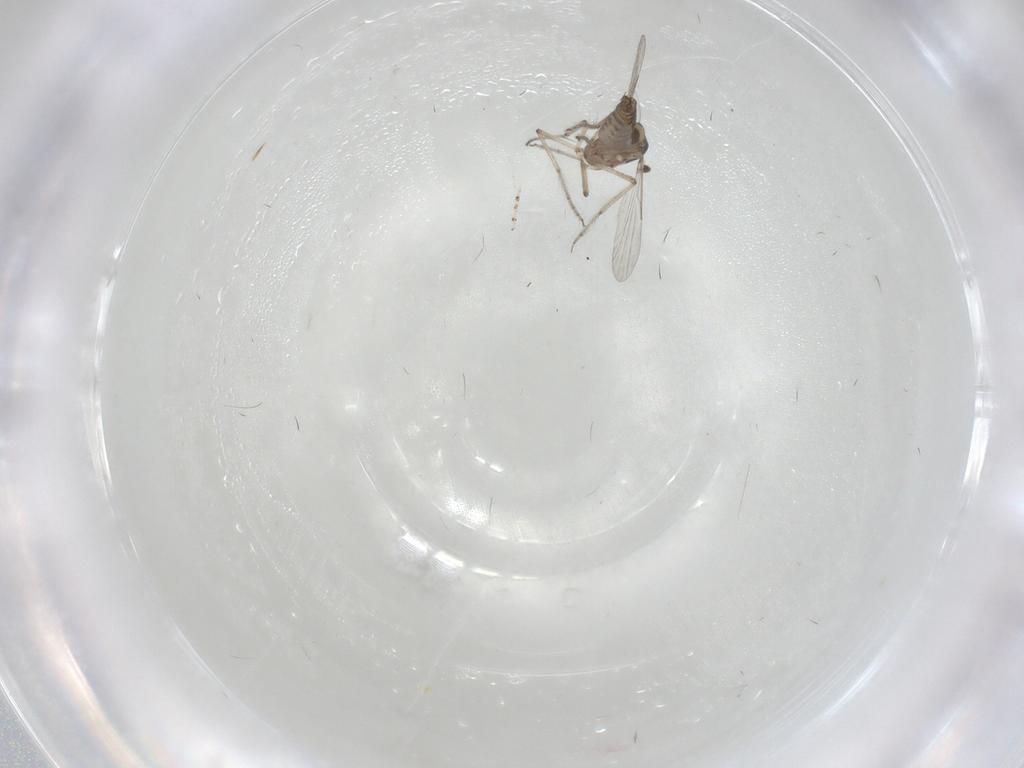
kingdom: Animalia
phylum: Arthropoda
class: Insecta
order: Diptera
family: Ceratopogonidae
